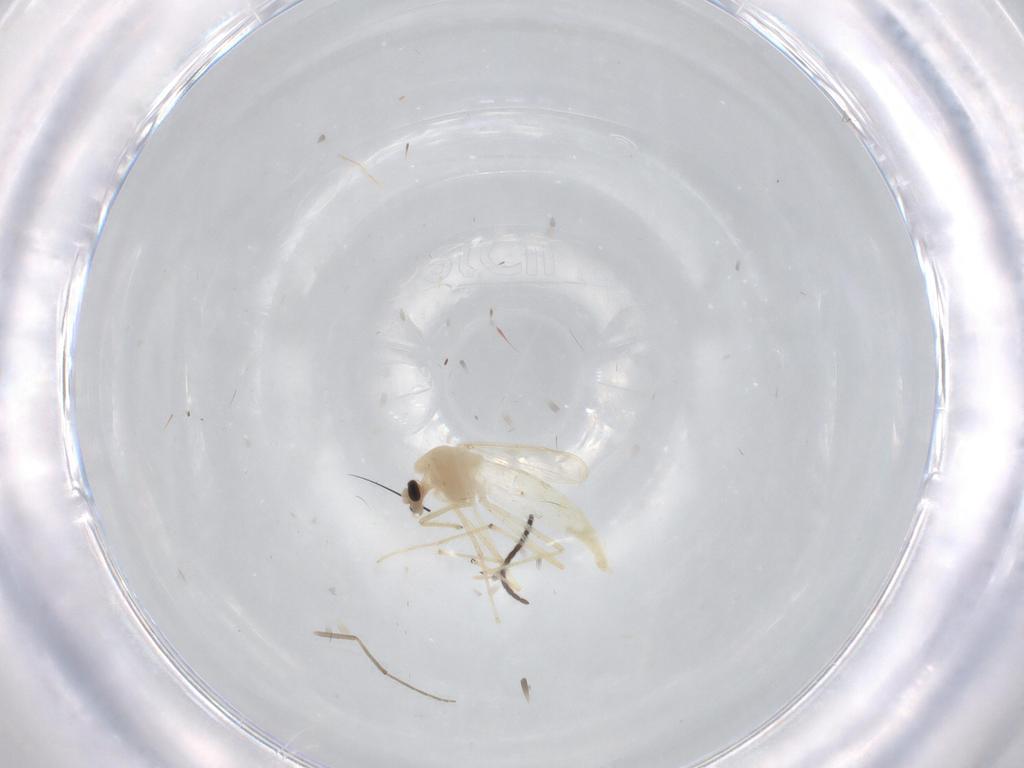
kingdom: Animalia
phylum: Arthropoda
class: Insecta
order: Diptera
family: Chironomidae
